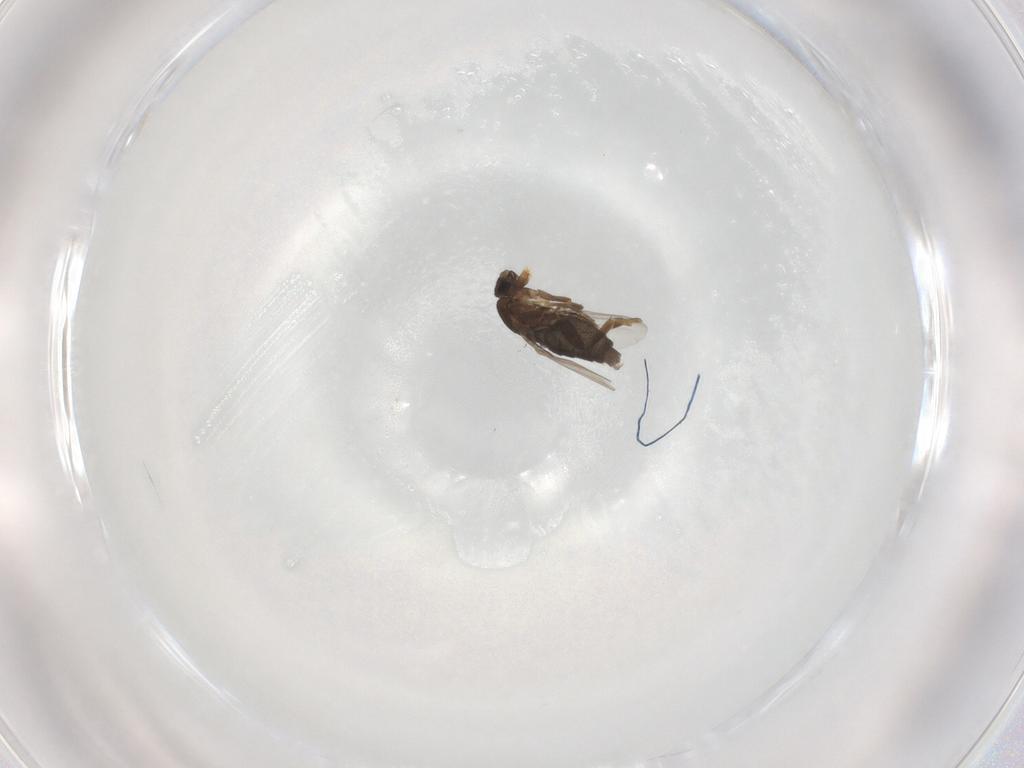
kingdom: Animalia
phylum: Arthropoda
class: Insecta
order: Diptera
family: Phoridae
